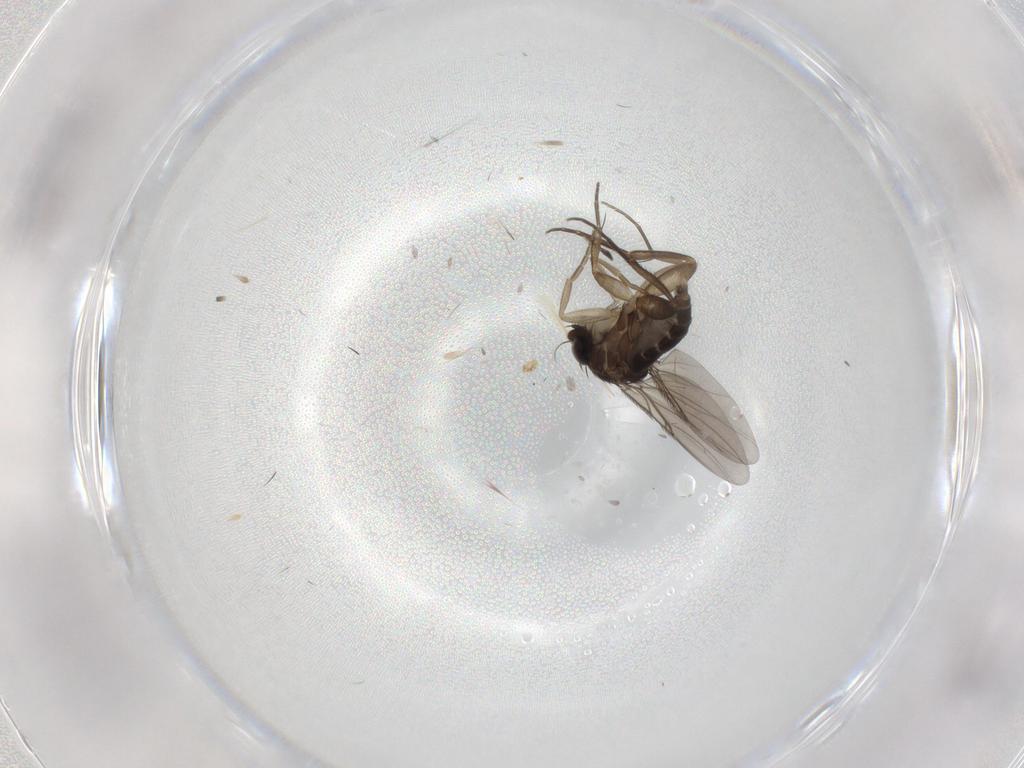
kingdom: Animalia
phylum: Arthropoda
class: Insecta
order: Diptera
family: Phoridae
